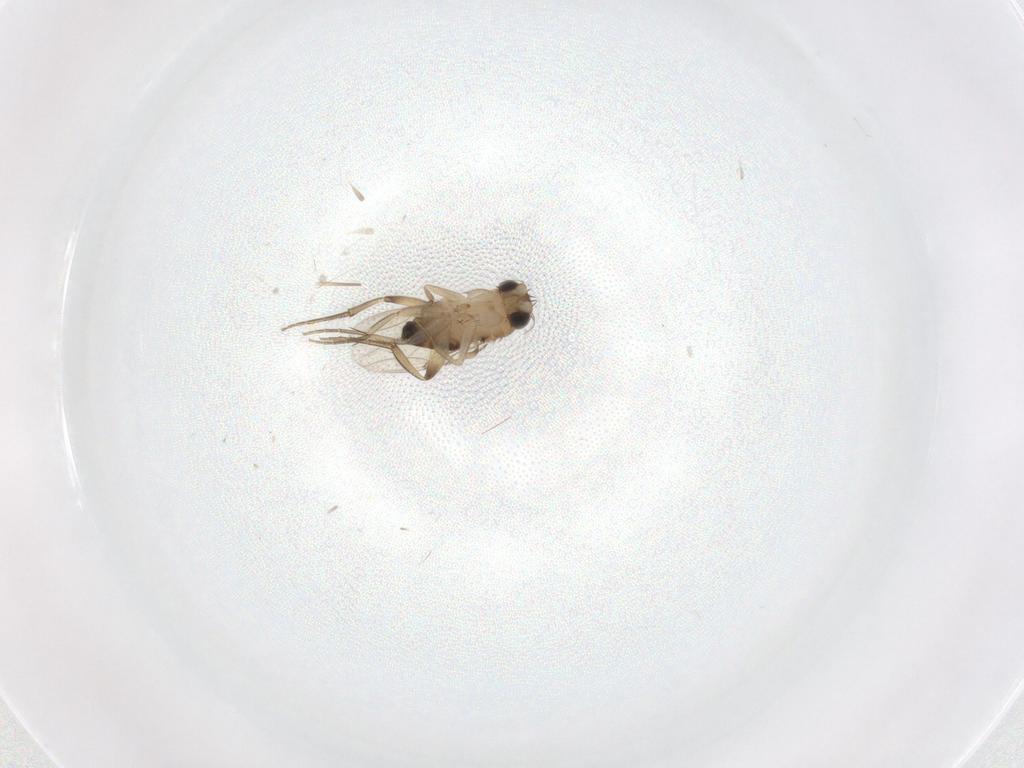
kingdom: Animalia
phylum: Arthropoda
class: Insecta
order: Diptera
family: Phoridae
